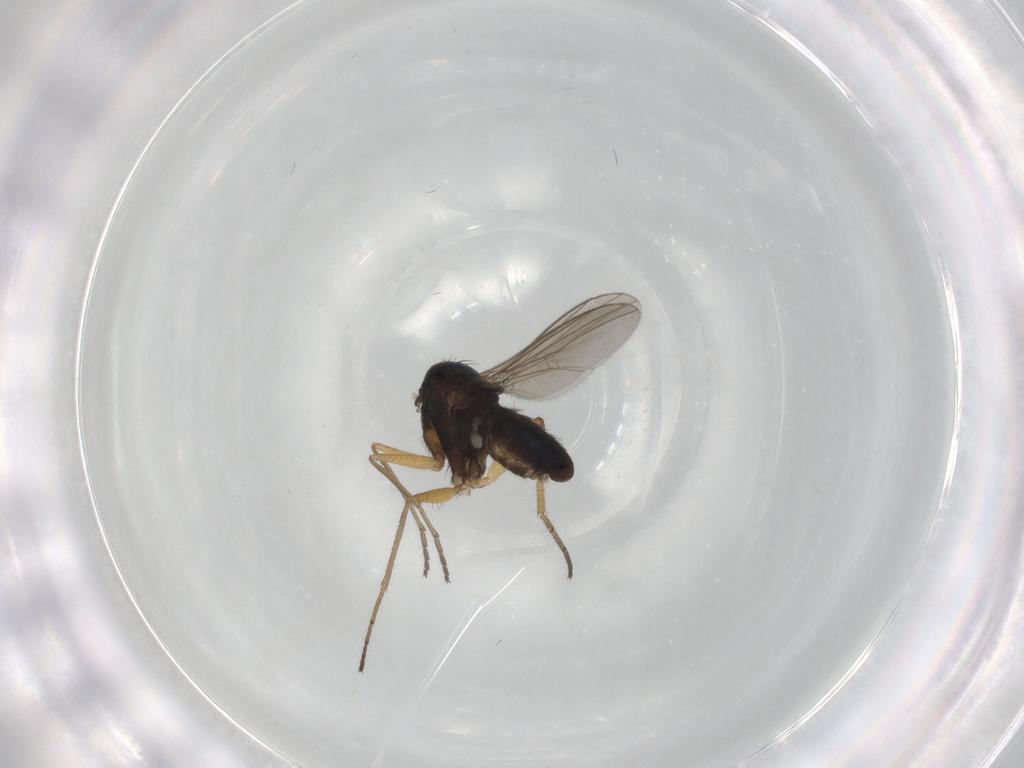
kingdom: Animalia
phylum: Arthropoda
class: Insecta
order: Diptera
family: Dolichopodidae
